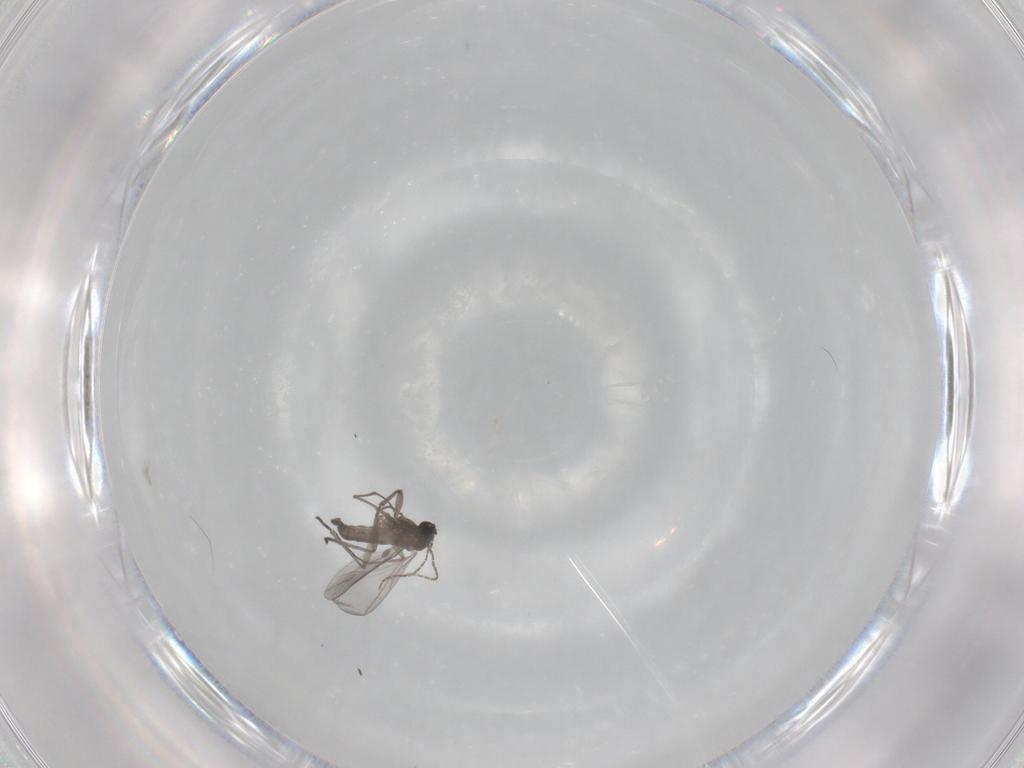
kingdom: Animalia
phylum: Arthropoda
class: Insecta
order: Diptera
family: Sciaridae
